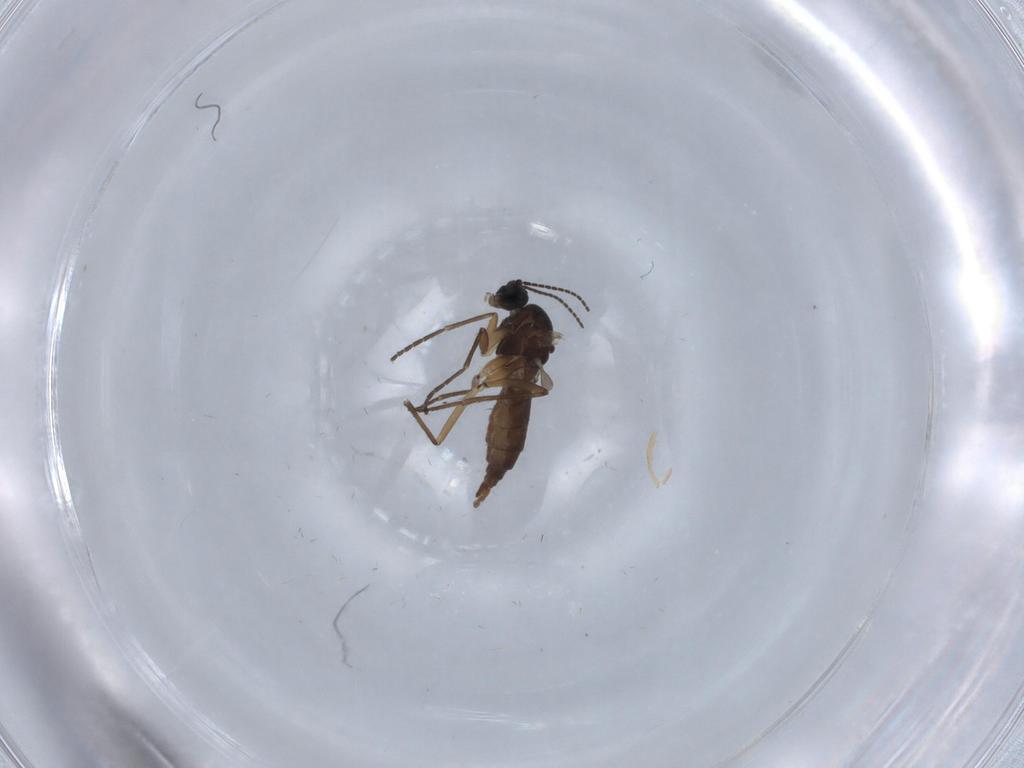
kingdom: Animalia
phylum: Arthropoda
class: Insecta
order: Diptera
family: Sciaridae
